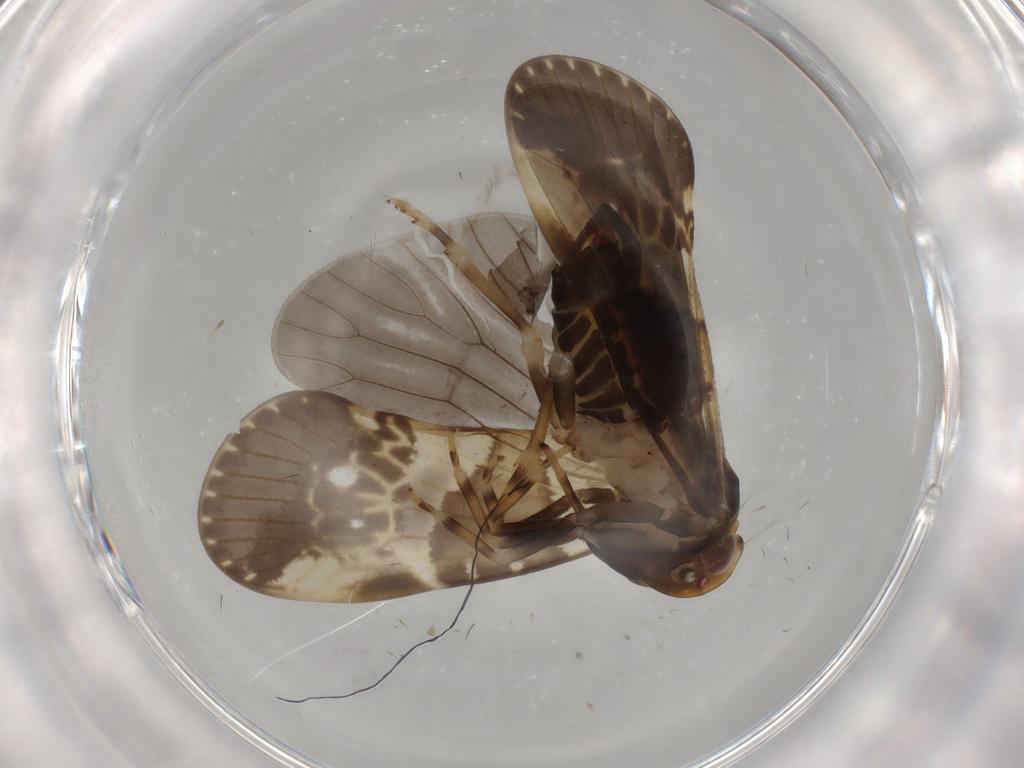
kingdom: Animalia
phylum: Arthropoda
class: Insecta
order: Hemiptera
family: Cixiidae
